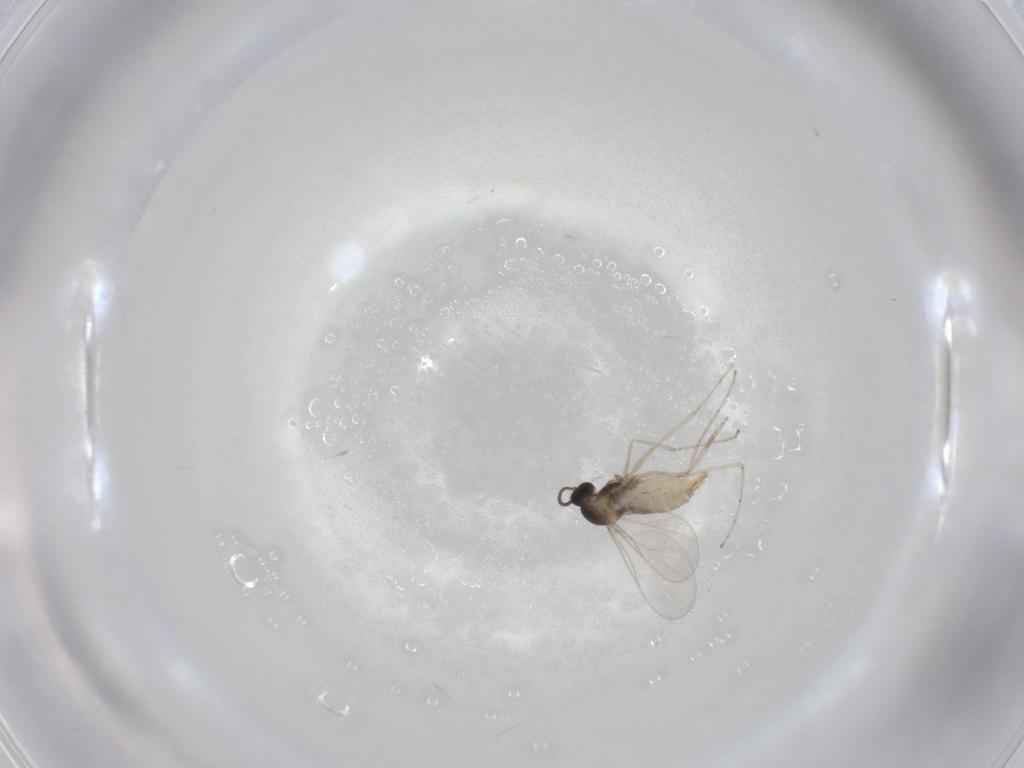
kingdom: Animalia
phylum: Arthropoda
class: Insecta
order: Diptera
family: Cecidomyiidae
